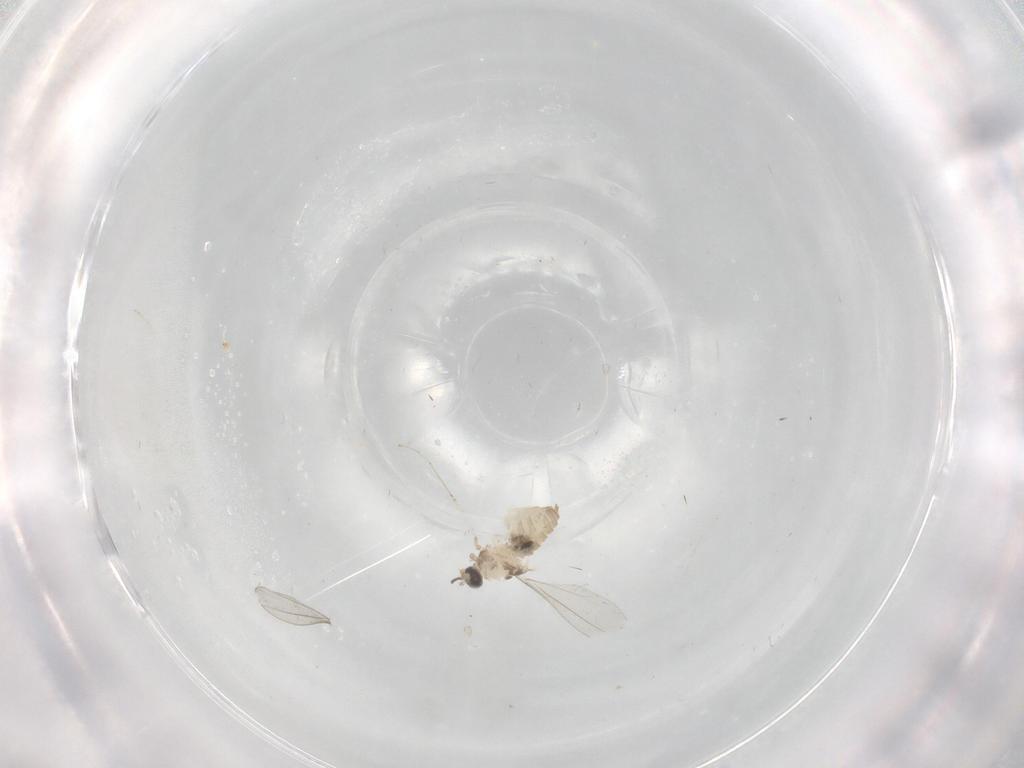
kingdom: Animalia
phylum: Arthropoda
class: Insecta
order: Diptera
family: Cecidomyiidae
